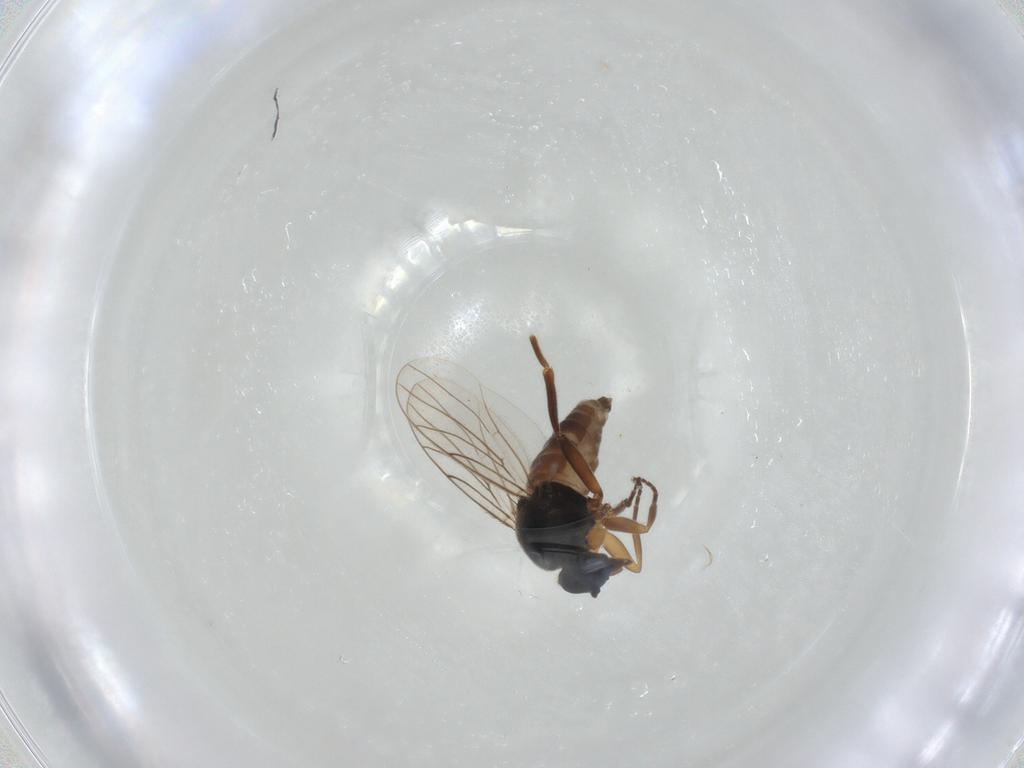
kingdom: Animalia
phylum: Arthropoda
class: Insecta
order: Diptera
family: Hybotidae
